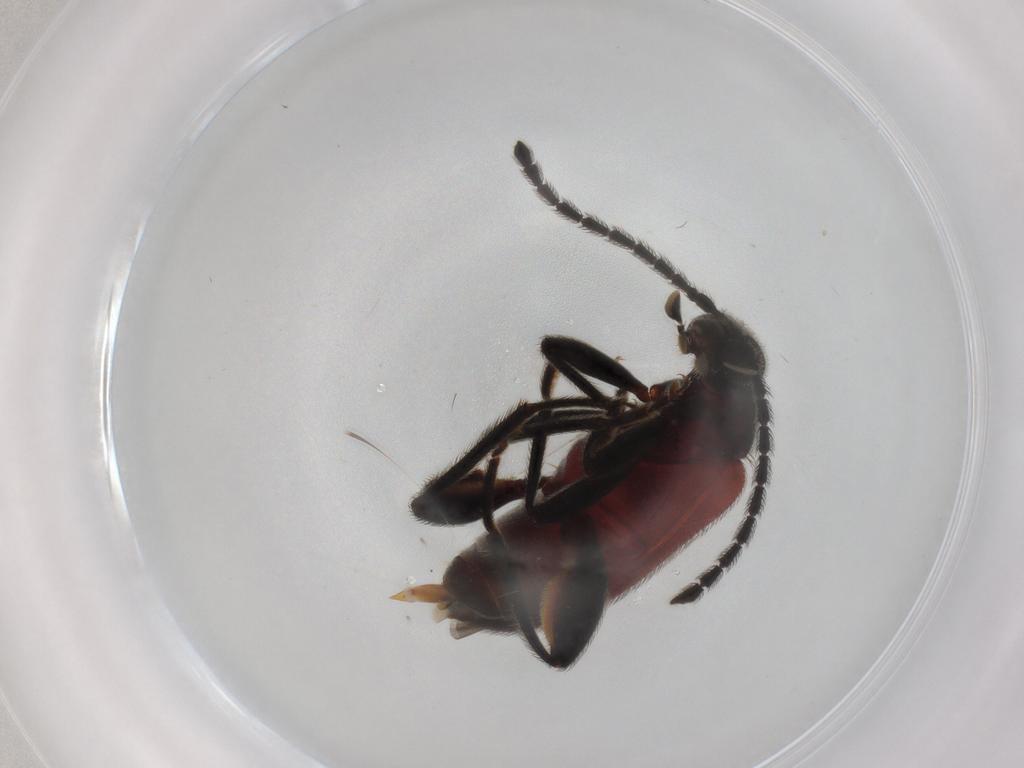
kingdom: Animalia
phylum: Arthropoda
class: Insecta
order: Coleoptera
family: Aderidae
